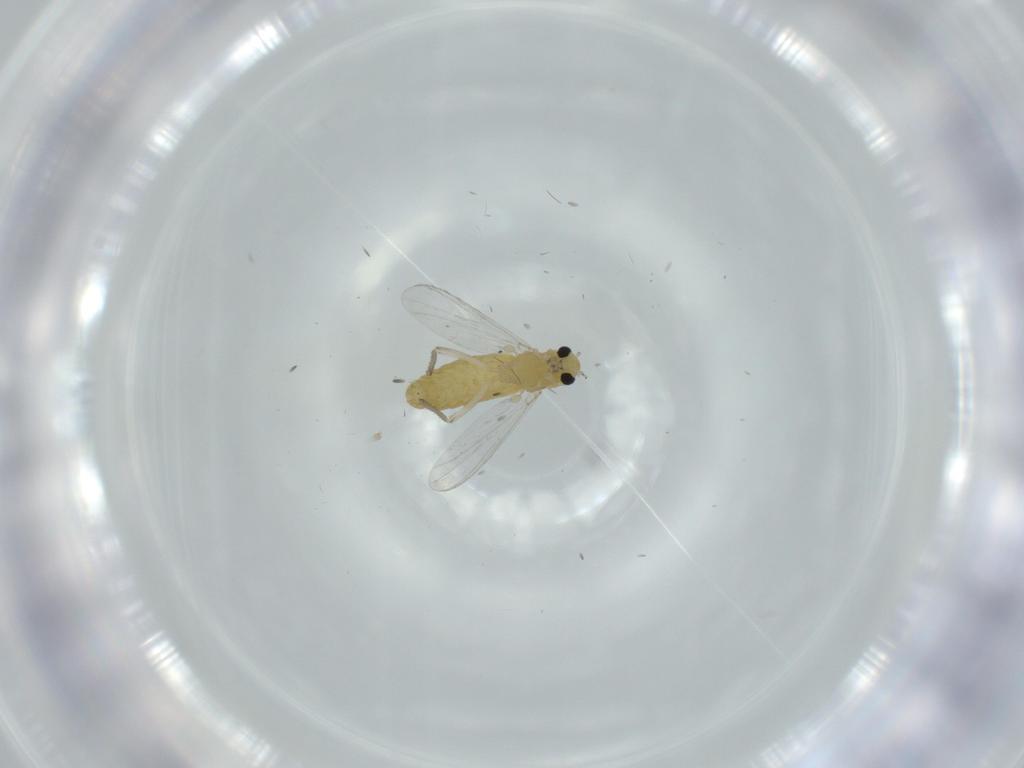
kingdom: Animalia
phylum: Arthropoda
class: Insecta
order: Diptera
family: Chironomidae
